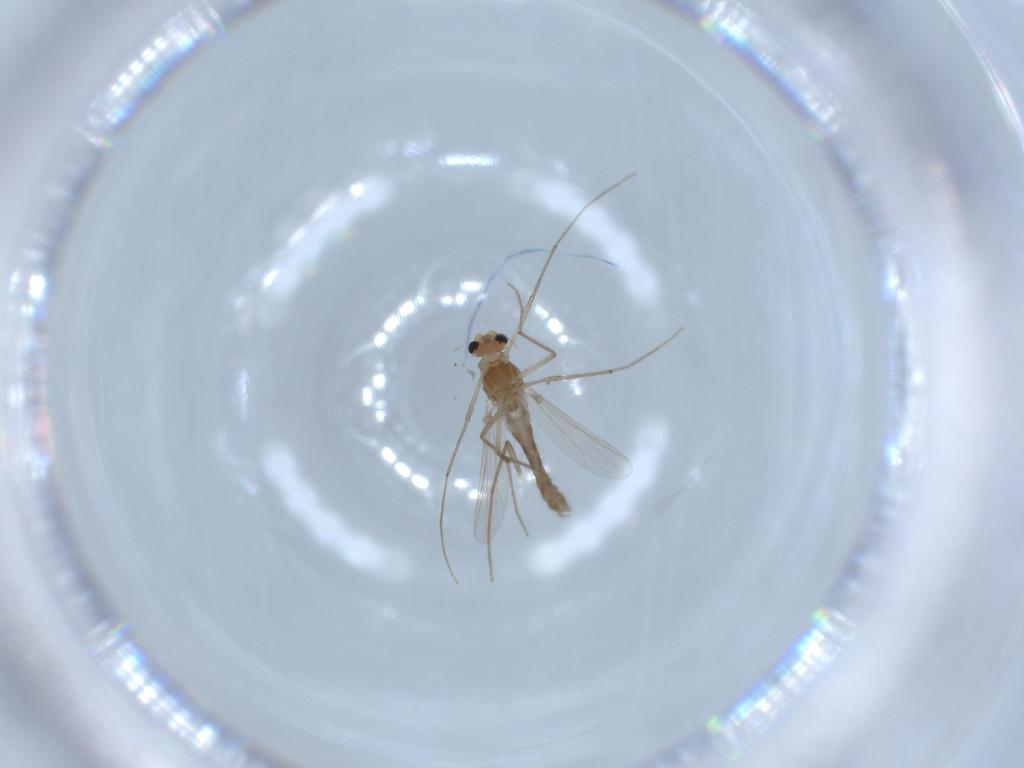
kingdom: Animalia
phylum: Arthropoda
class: Insecta
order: Diptera
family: Chironomidae
